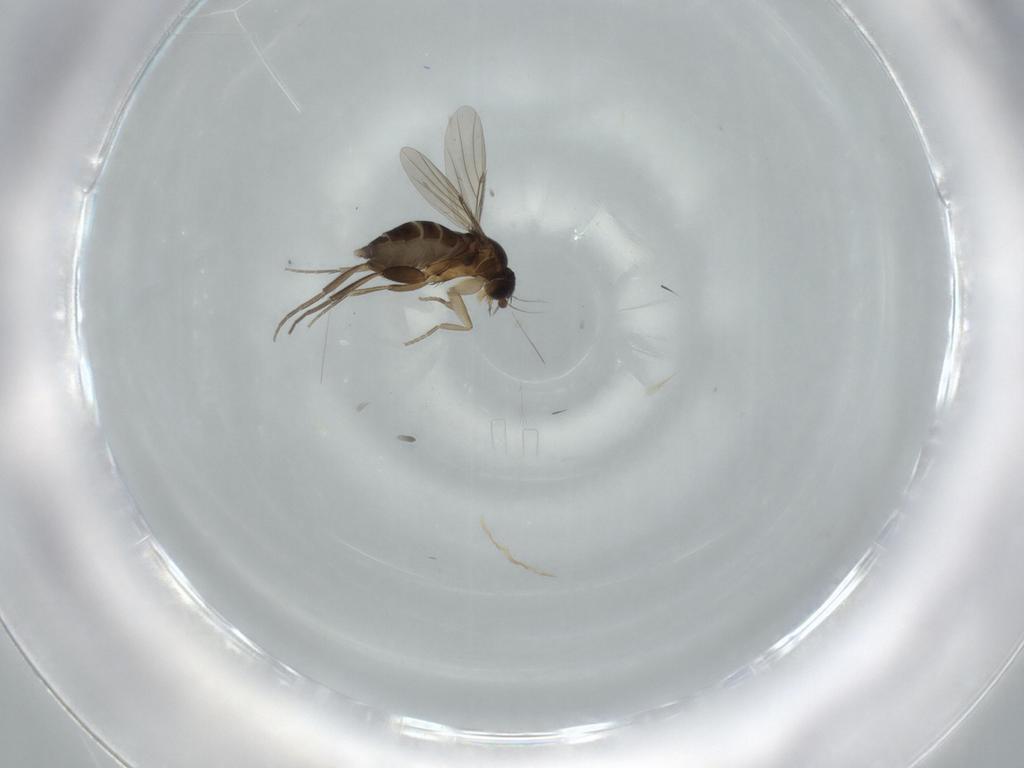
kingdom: Animalia
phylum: Arthropoda
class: Insecta
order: Diptera
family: Phoridae
